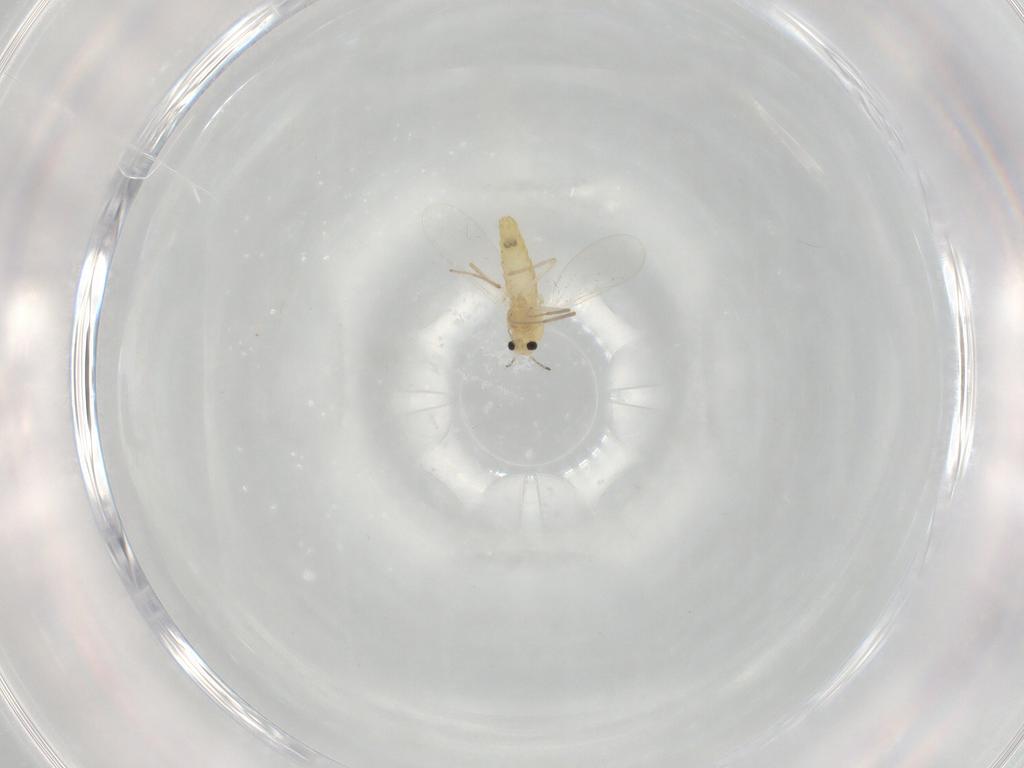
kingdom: Animalia
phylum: Arthropoda
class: Insecta
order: Diptera
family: Chironomidae
